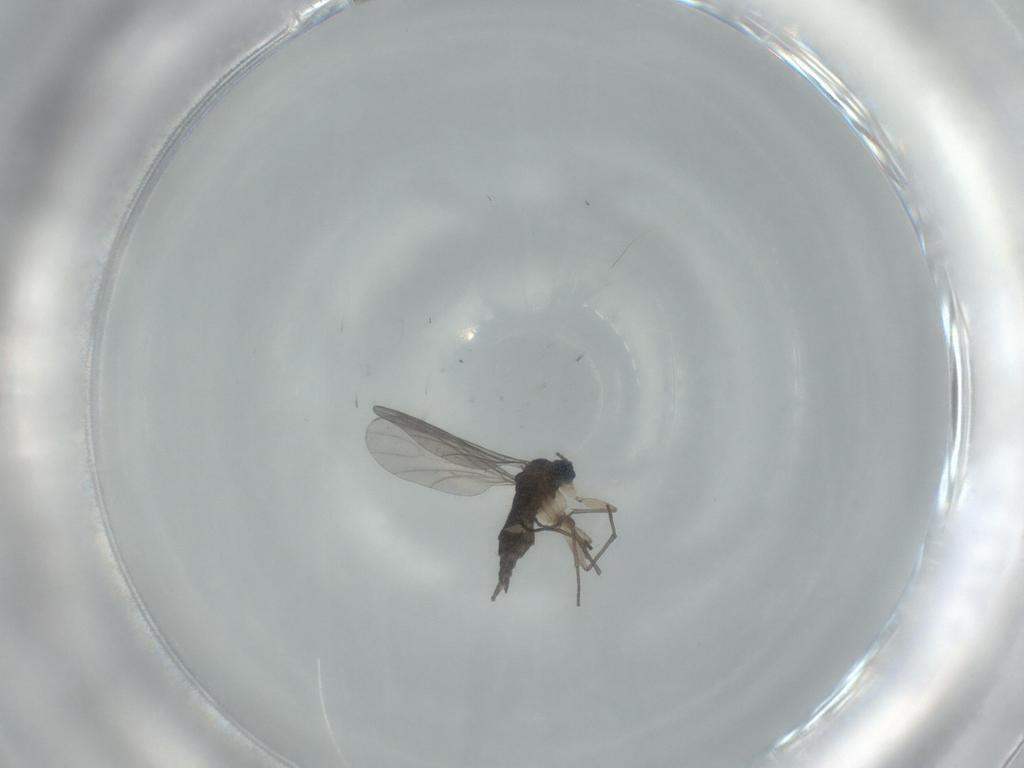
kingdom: Animalia
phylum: Arthropoda
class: Insecta
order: Diptera
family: Sciaridae
